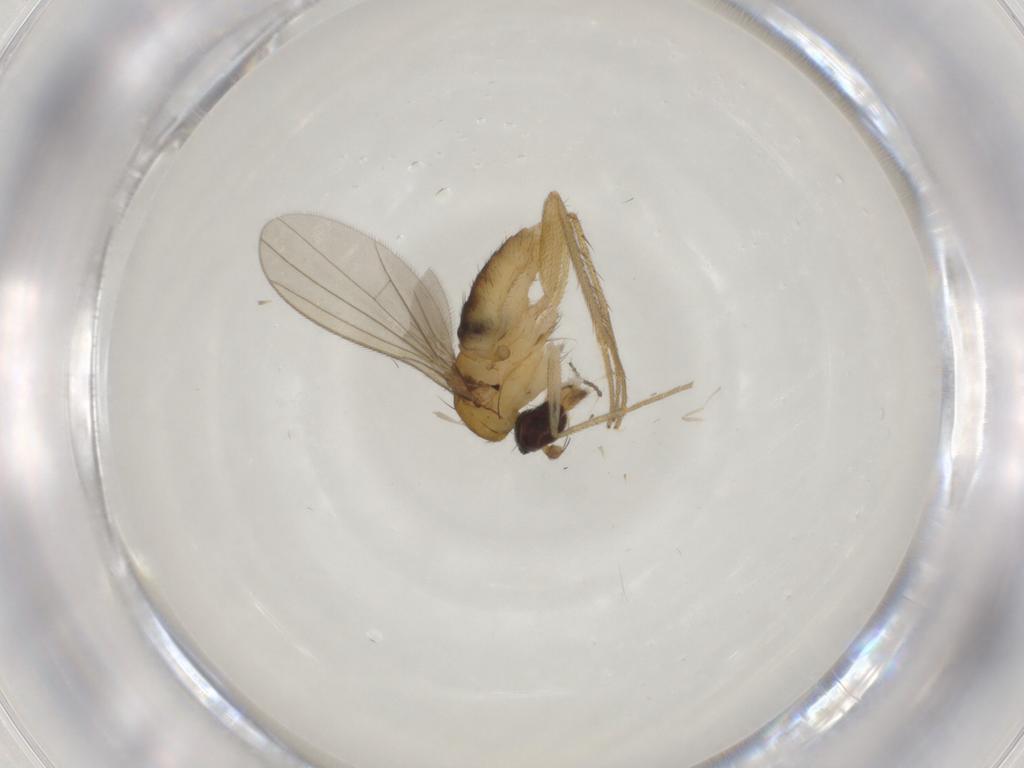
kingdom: Animalia
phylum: Arthropoda
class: Insecta
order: Diptera
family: Dolichopodidae
